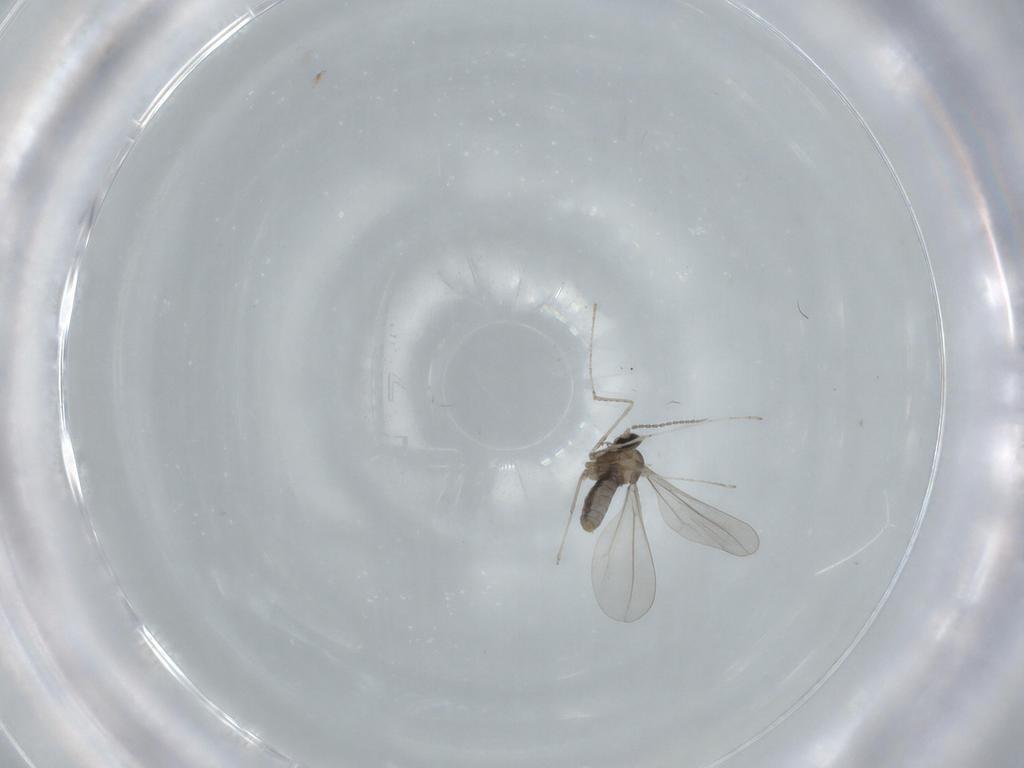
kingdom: Animalia
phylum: Arthropoda
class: Insecta
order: Diptera
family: Cecidomyiidae
